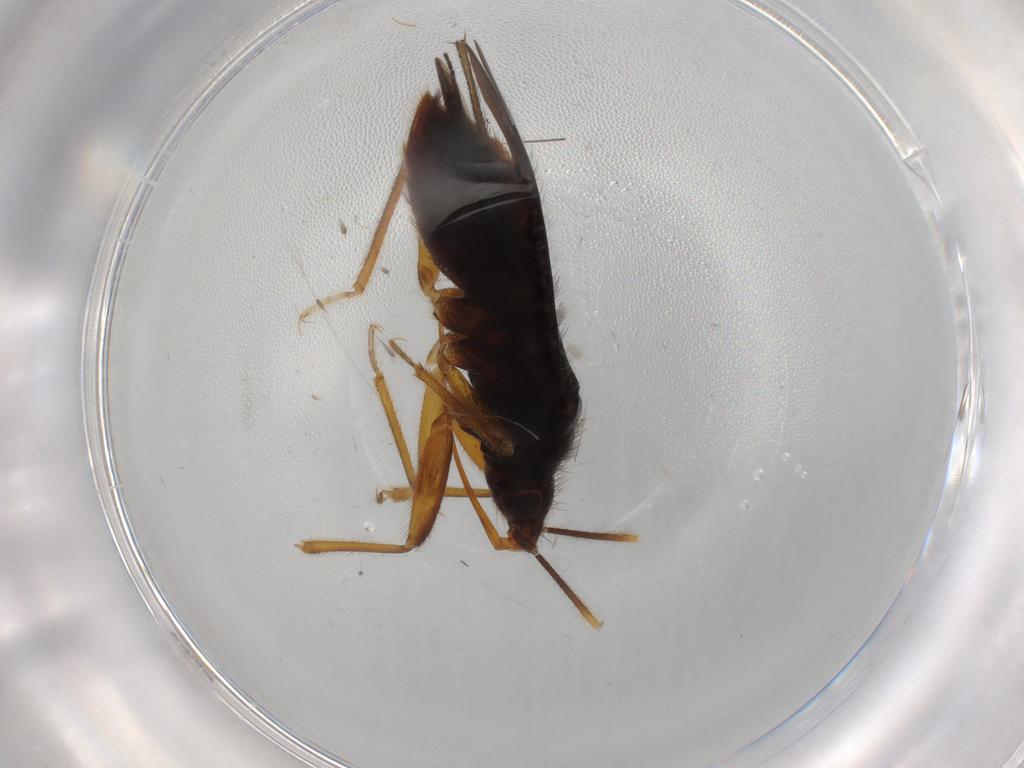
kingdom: Animalia
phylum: Arthropoda
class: Insecta
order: Hemiptera
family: Anthocoridae
